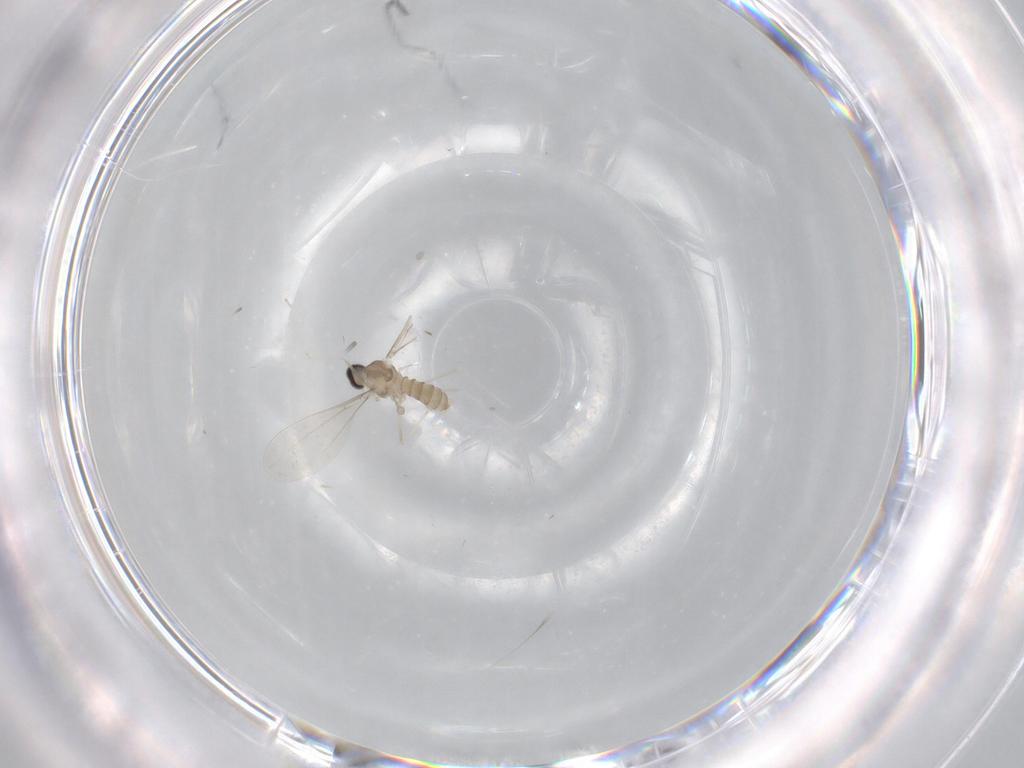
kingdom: Animalia
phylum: Arthropoda
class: Insecta
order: Diptera
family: Cecidomyiidae
